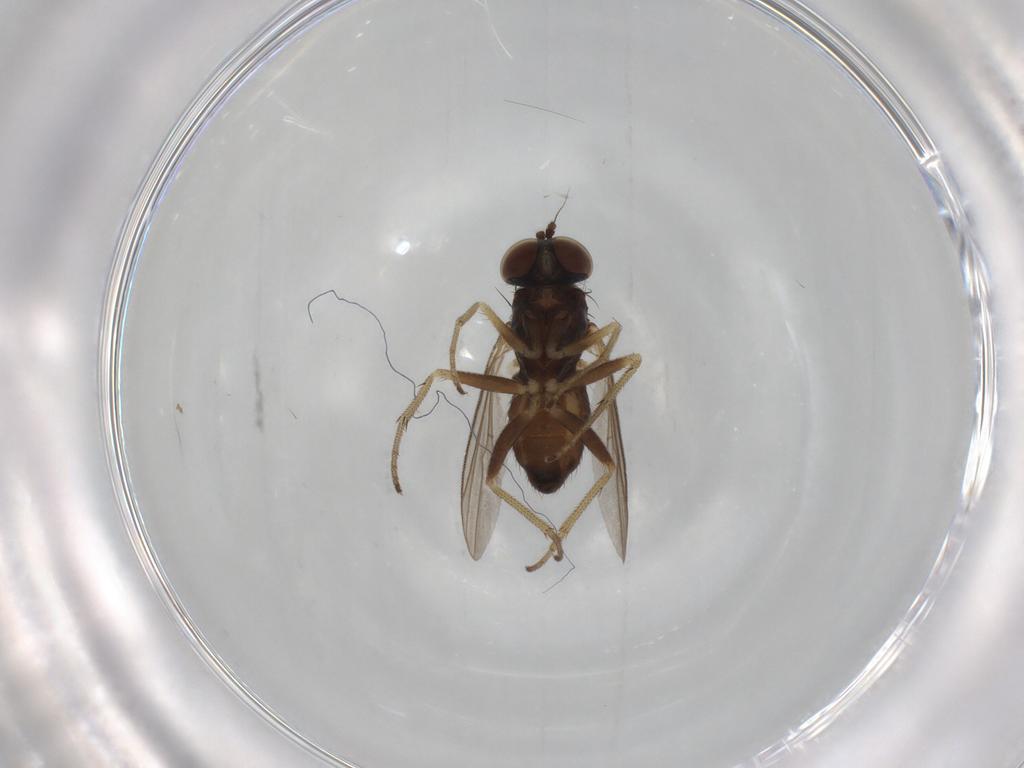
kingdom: Animalia
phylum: Arthropoda
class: Insecta
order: Diptera
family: Dolichopodidae
